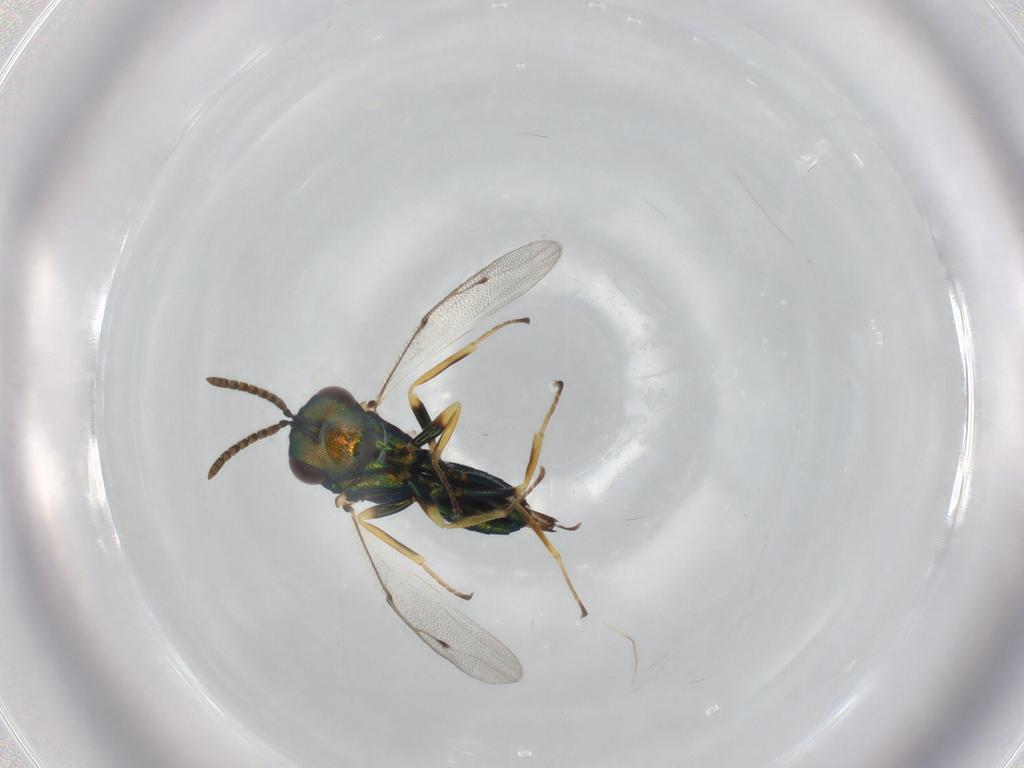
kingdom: Animalia
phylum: Arthropoda
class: Insecta
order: Hymenoptera
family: Pteromalidae
